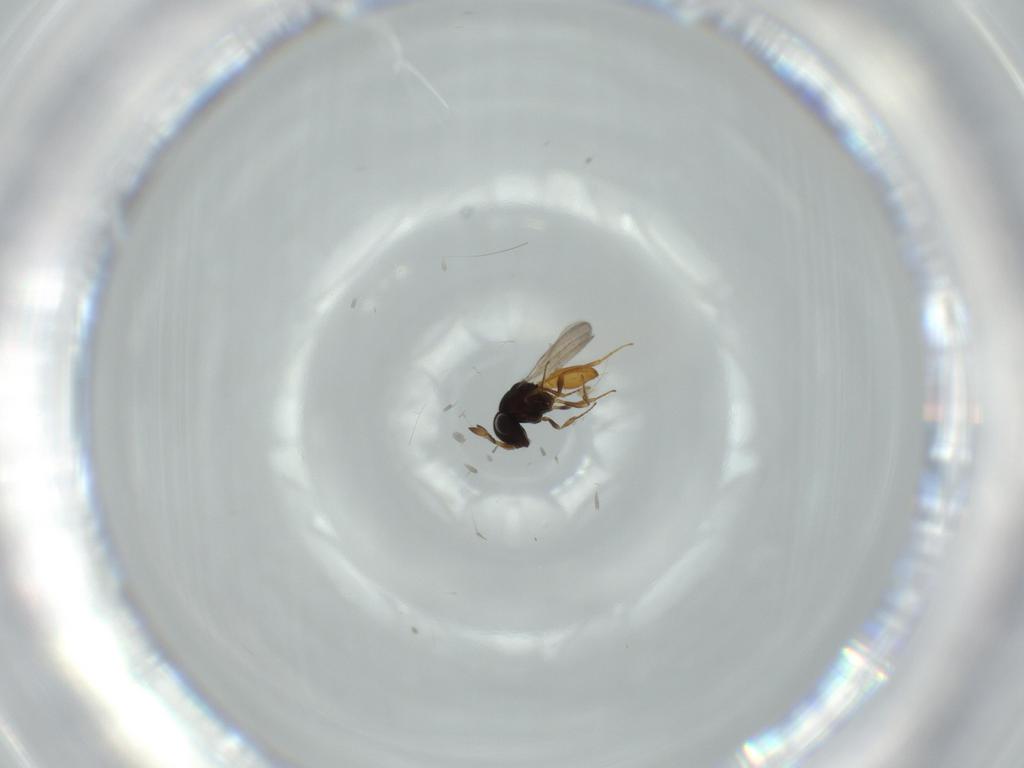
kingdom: Animalia
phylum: Arthropoda
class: Insecta
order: Hymenoptera
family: Scelionidae
